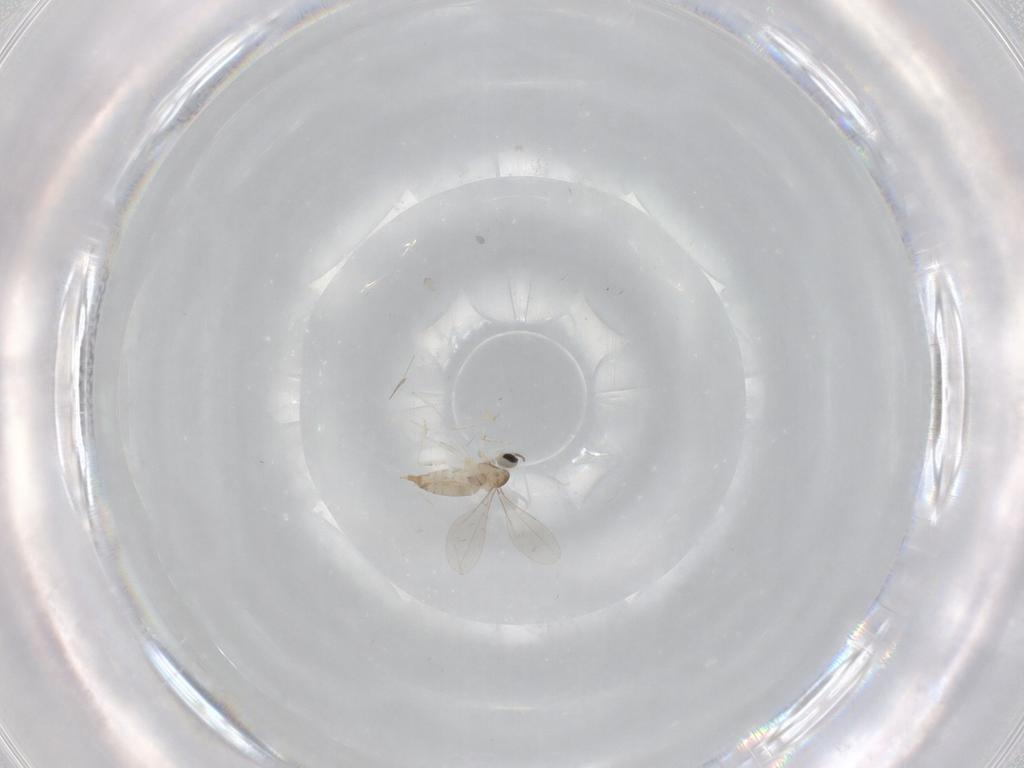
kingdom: Animalia
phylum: Arthropoda
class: Insecta
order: Diptera
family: Cecidomyiidae
